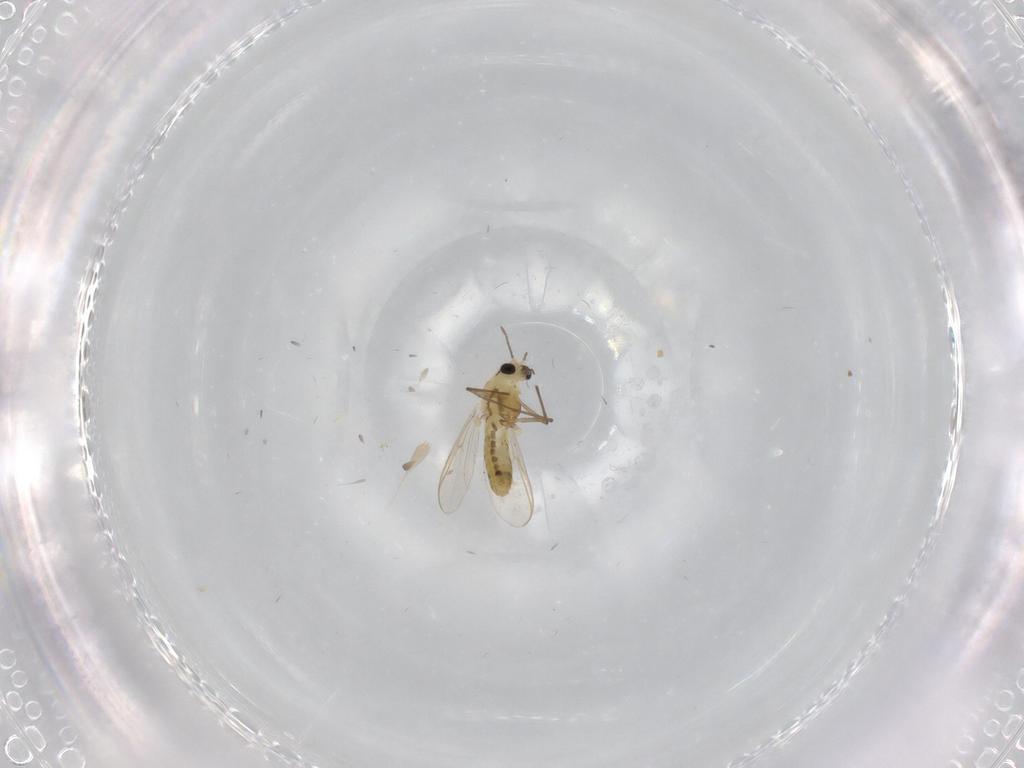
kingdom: Animalia
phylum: Arthropoda
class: Insecta
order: Diptera
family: Chironomidae
